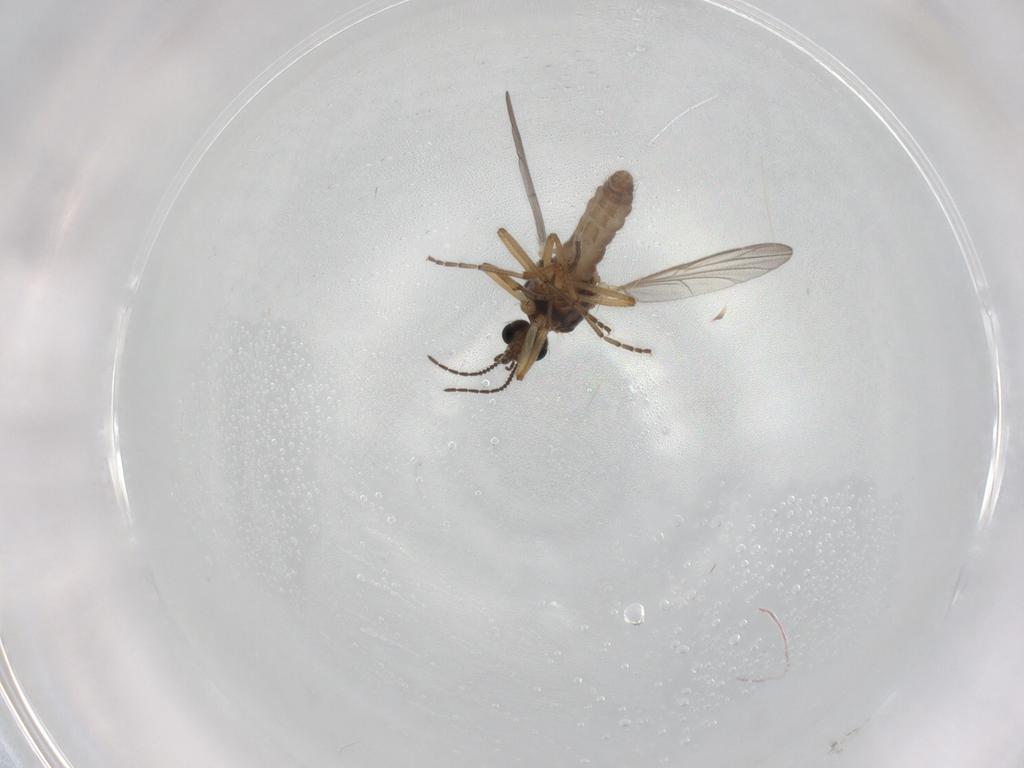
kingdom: Animalia
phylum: Arthropoda
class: Insecta
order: Diptera
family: Ceratopogonidae
